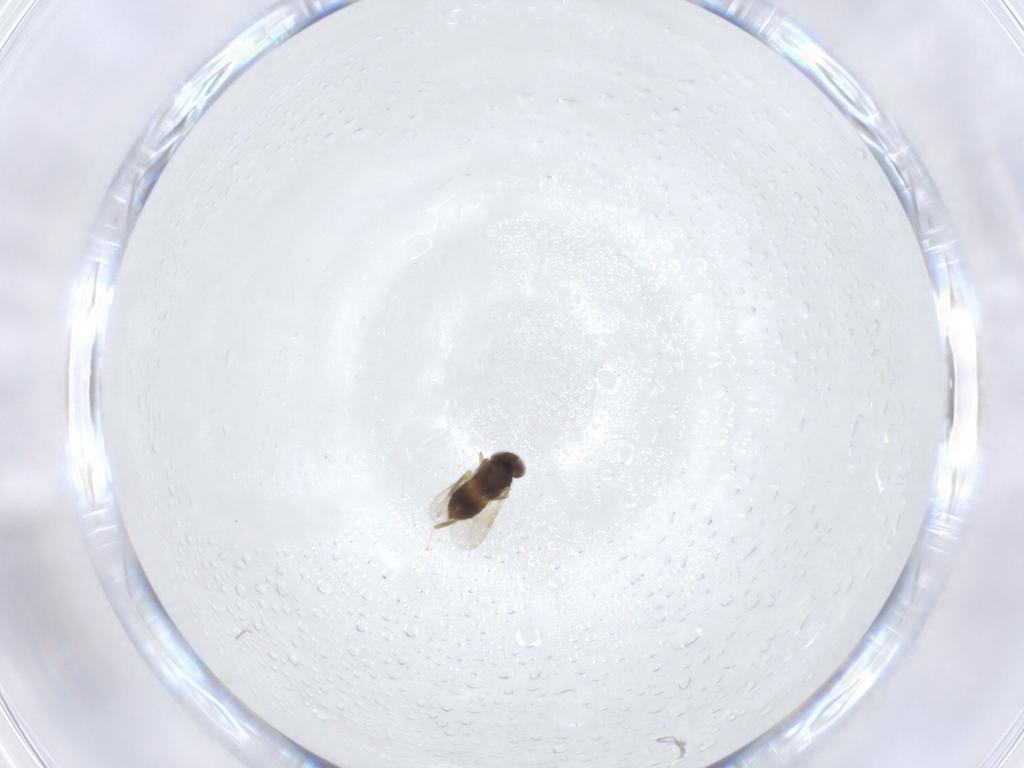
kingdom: Animalia
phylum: Arthropoda
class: Insecta
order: Hymenoptera
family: Aphelinidae
